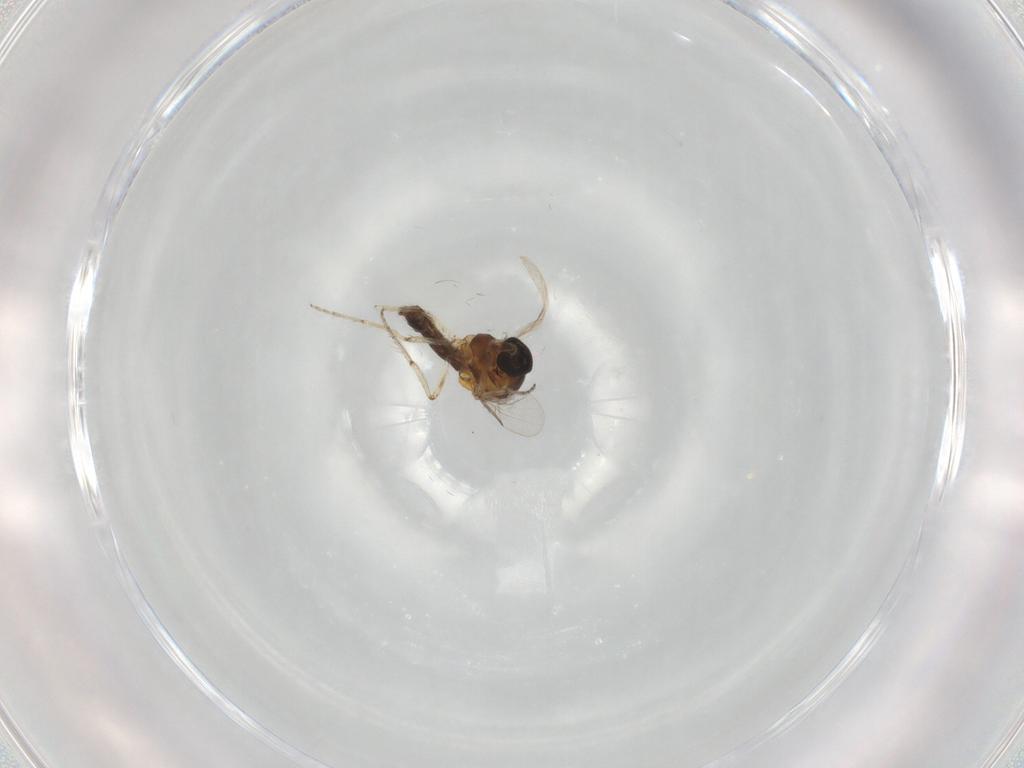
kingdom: Animalia
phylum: Arthropoda
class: Insecta
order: Diptera
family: Ceratopogonidae
